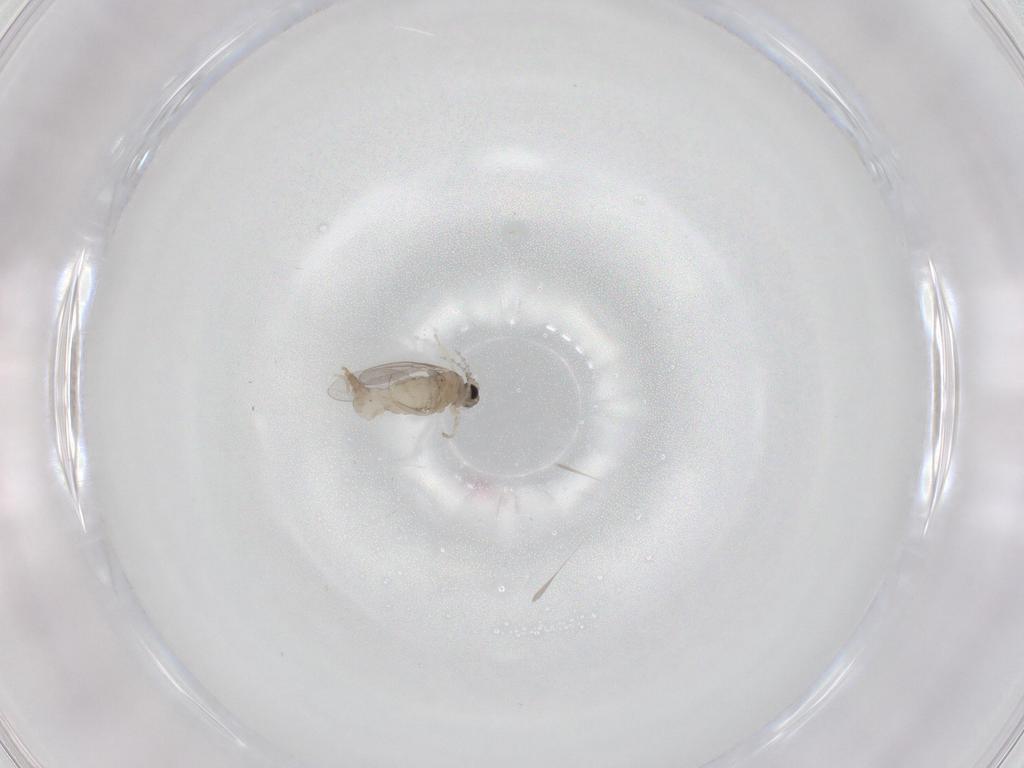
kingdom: Animalia
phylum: Arthropoda
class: Insecta
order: Diptera
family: Cecidomyiidae
